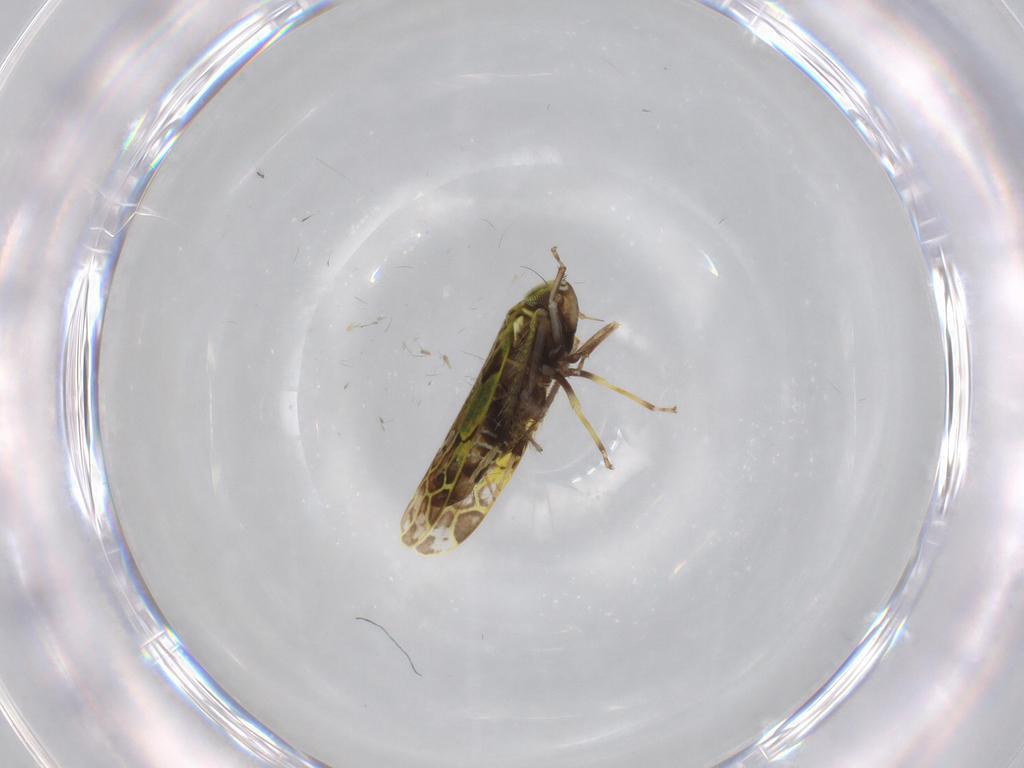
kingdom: Animalia
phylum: Arthropoda
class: Insecta
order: Hemiptera
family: Cicadellidae
